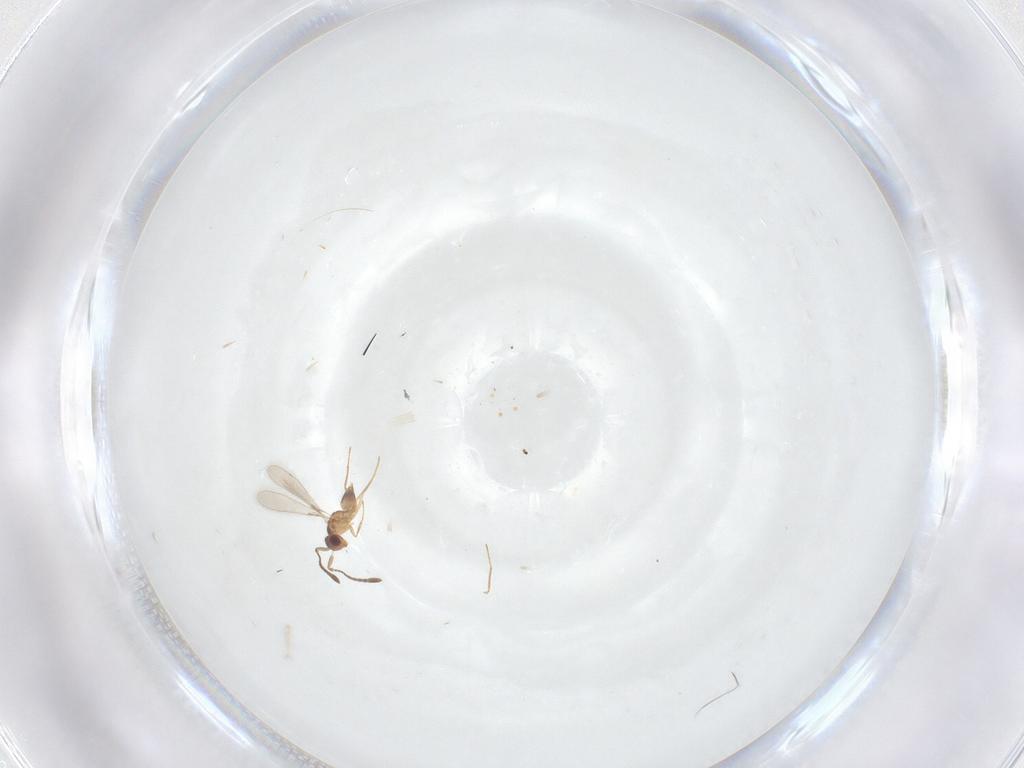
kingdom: Animalia
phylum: Arthropoda
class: Insecta
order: Hymenoptera
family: Mymaridae
